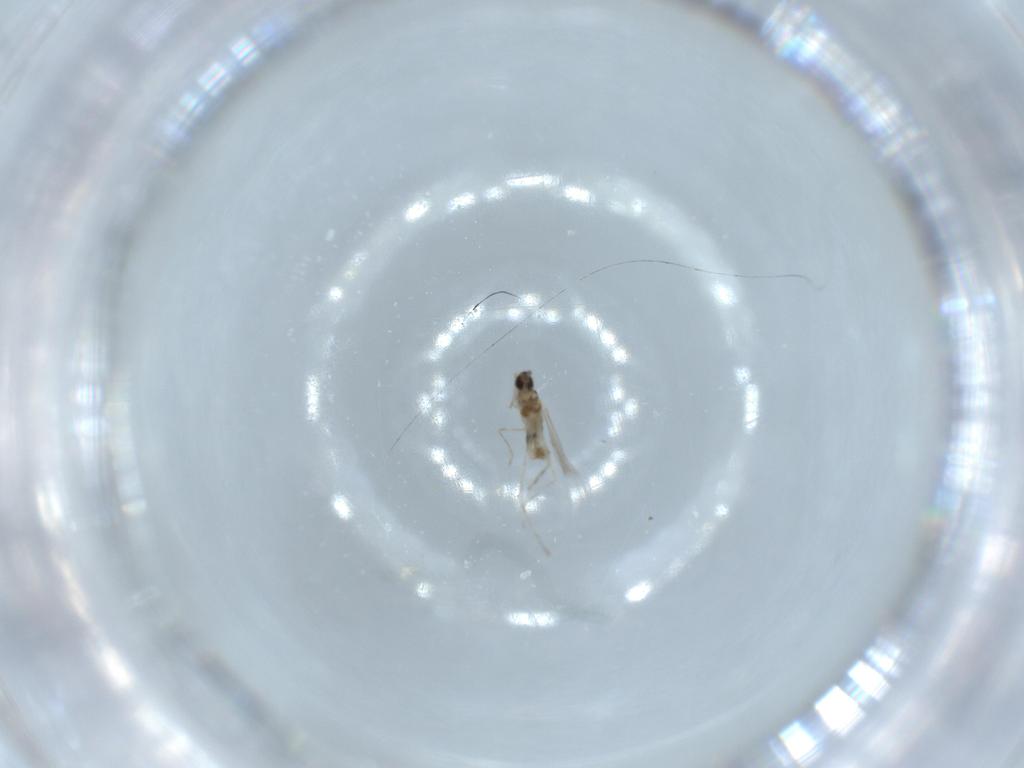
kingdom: Animalia
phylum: Arthropoda
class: Insecta
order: Diptera
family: Cecidomyiidae
